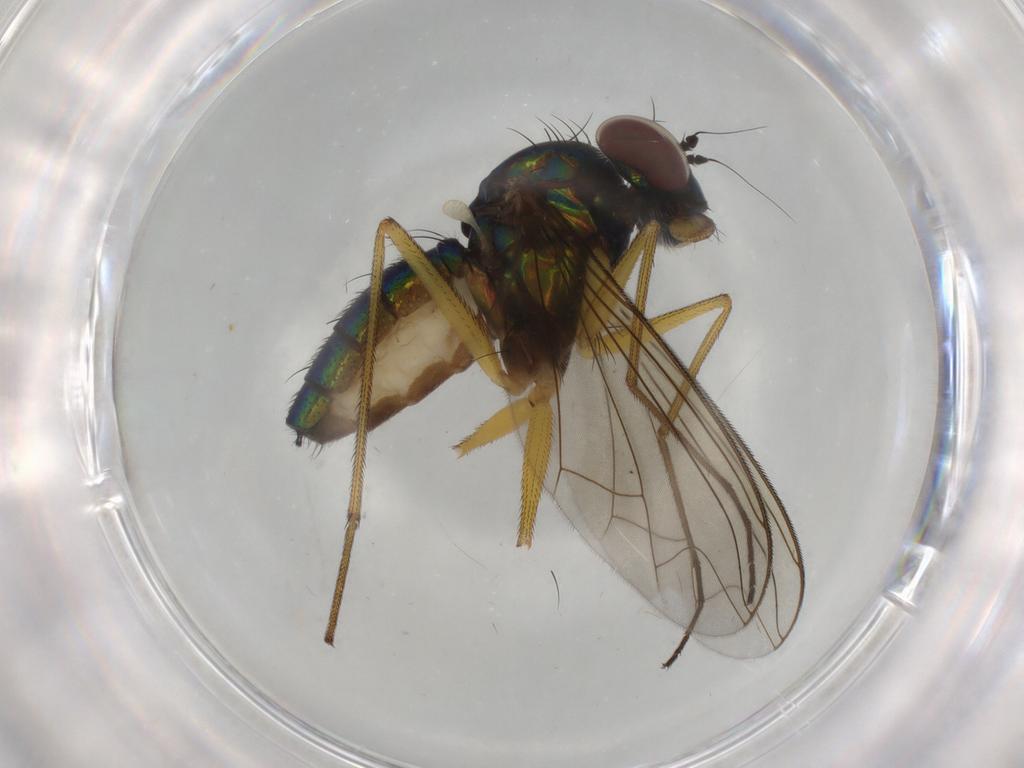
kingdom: Animalia
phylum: Arthropoda
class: Insecta
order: Diptera
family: Dolichopodidae
